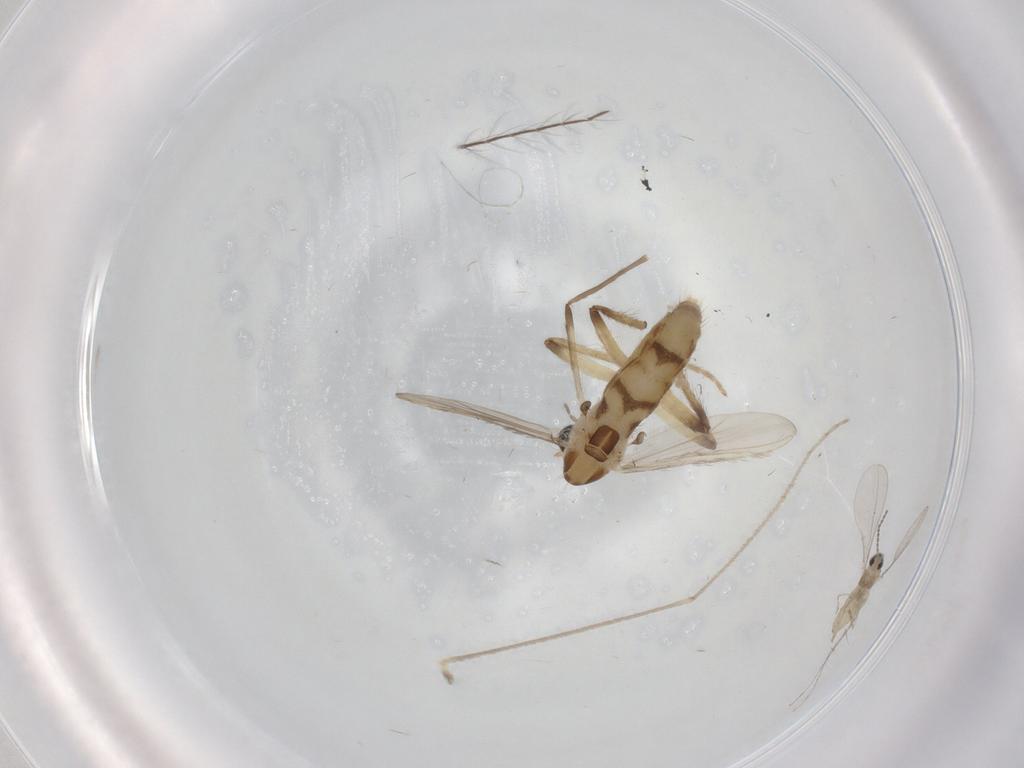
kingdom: Animalia
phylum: Arthropoda
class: Insecta
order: Diptera
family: Chironomidae
